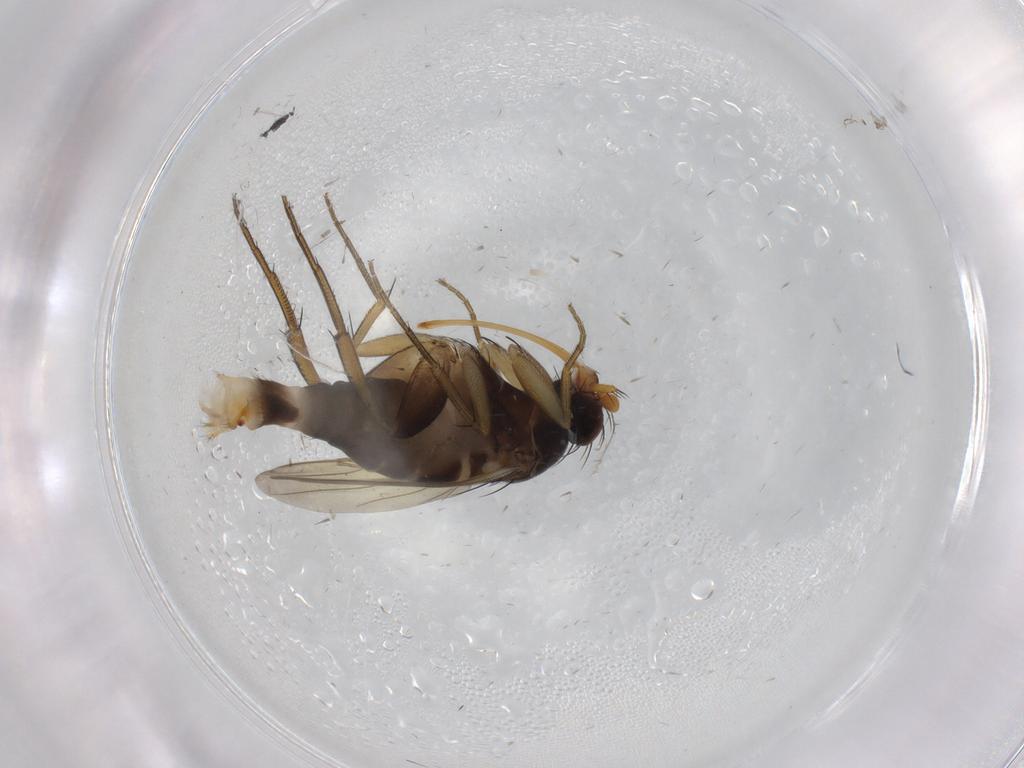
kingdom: Animalia
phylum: Arthropoda
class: Insecta
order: Diptera
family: Phoridae
